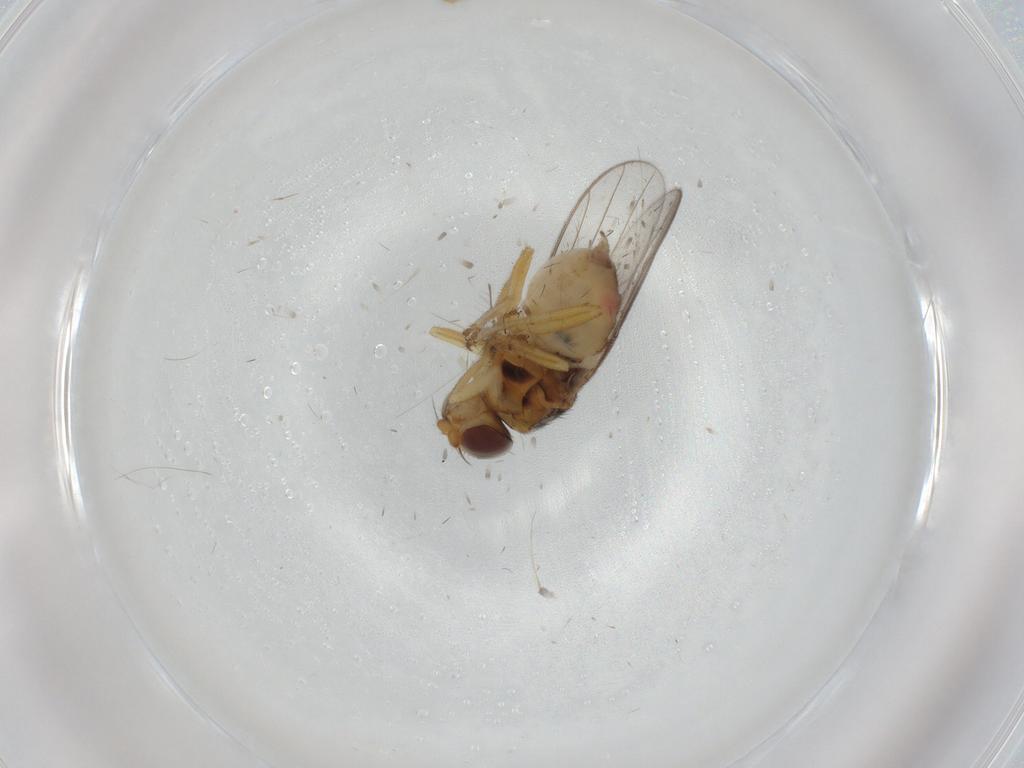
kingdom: Animalia
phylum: Arthropoda
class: Insecta
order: Diptera
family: Chloropidae
